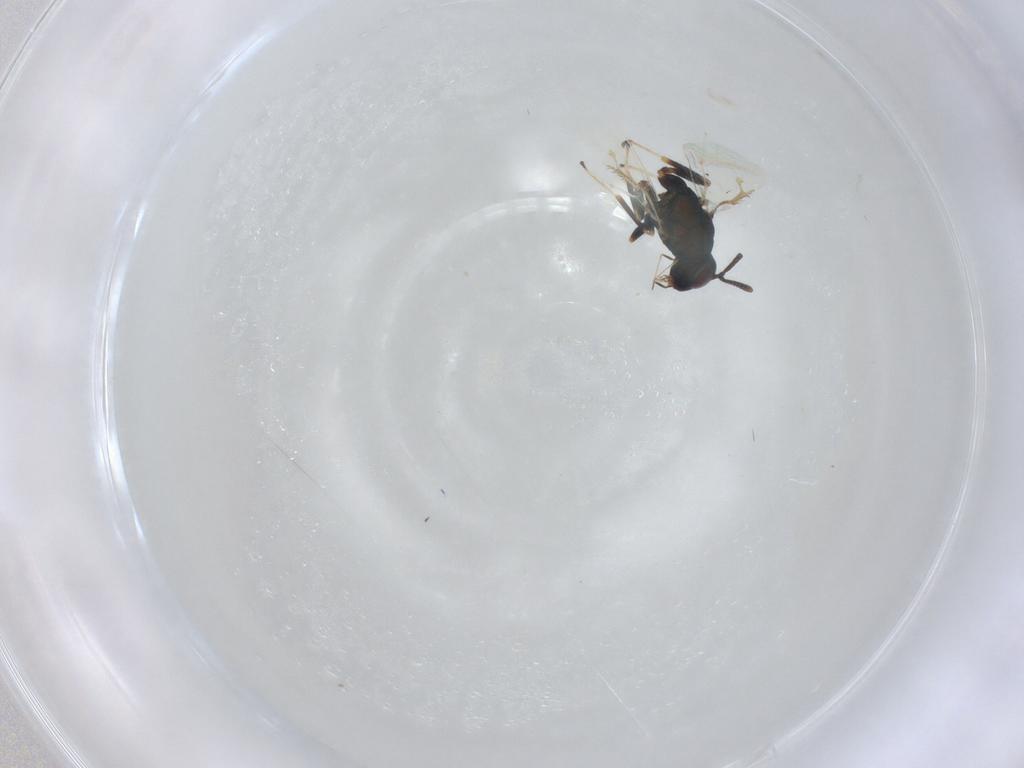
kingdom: Animalia
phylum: Arthropoda
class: Insecta
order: Hymenoptera
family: Pteromalidae
